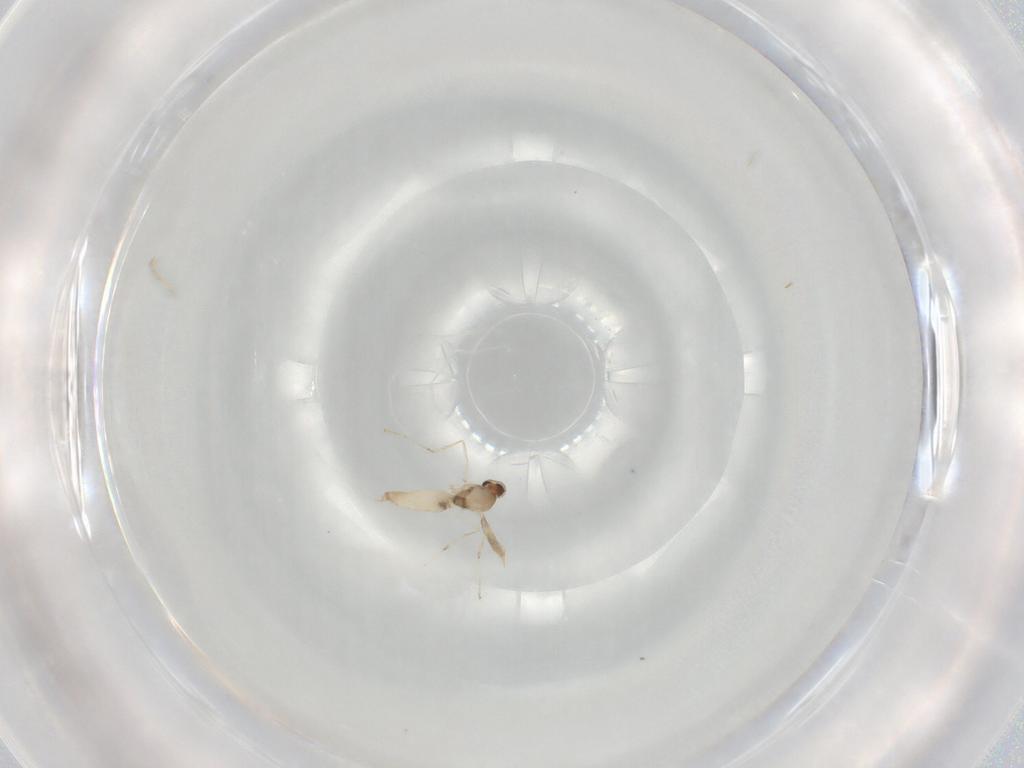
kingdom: Animalia
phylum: Arthropoda
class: Insecta
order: Diptera
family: Cecidomyiidae
